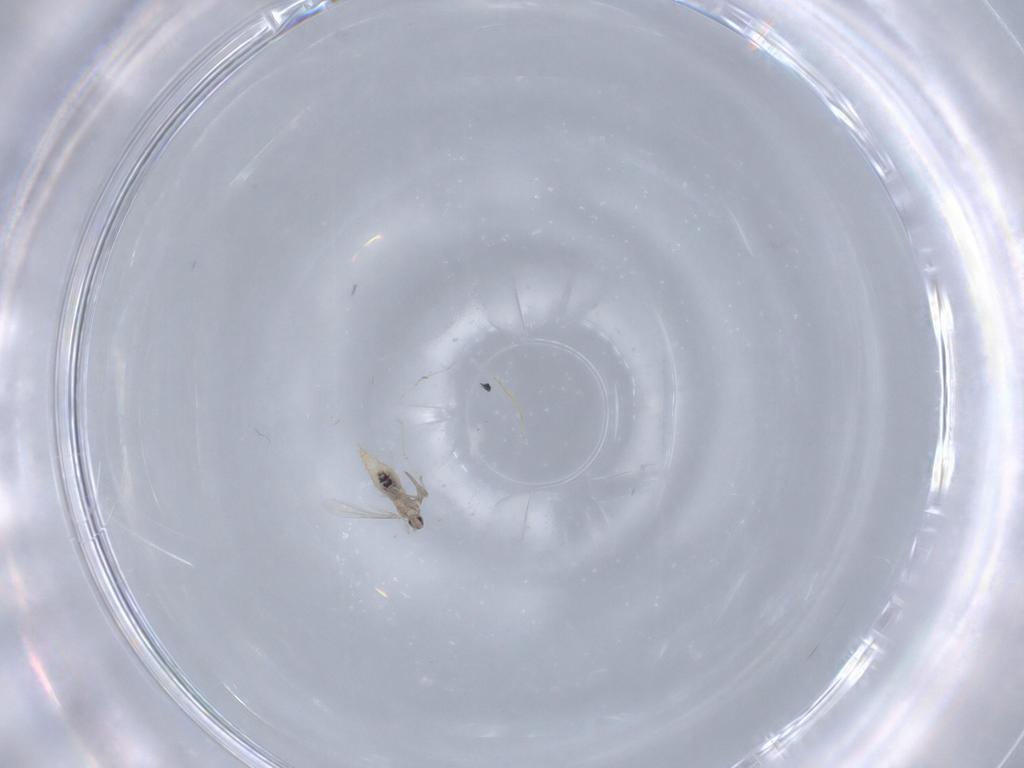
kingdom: Animalia
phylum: Arthropoda
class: Insecta
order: Diptera
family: Cecidomyiidae
